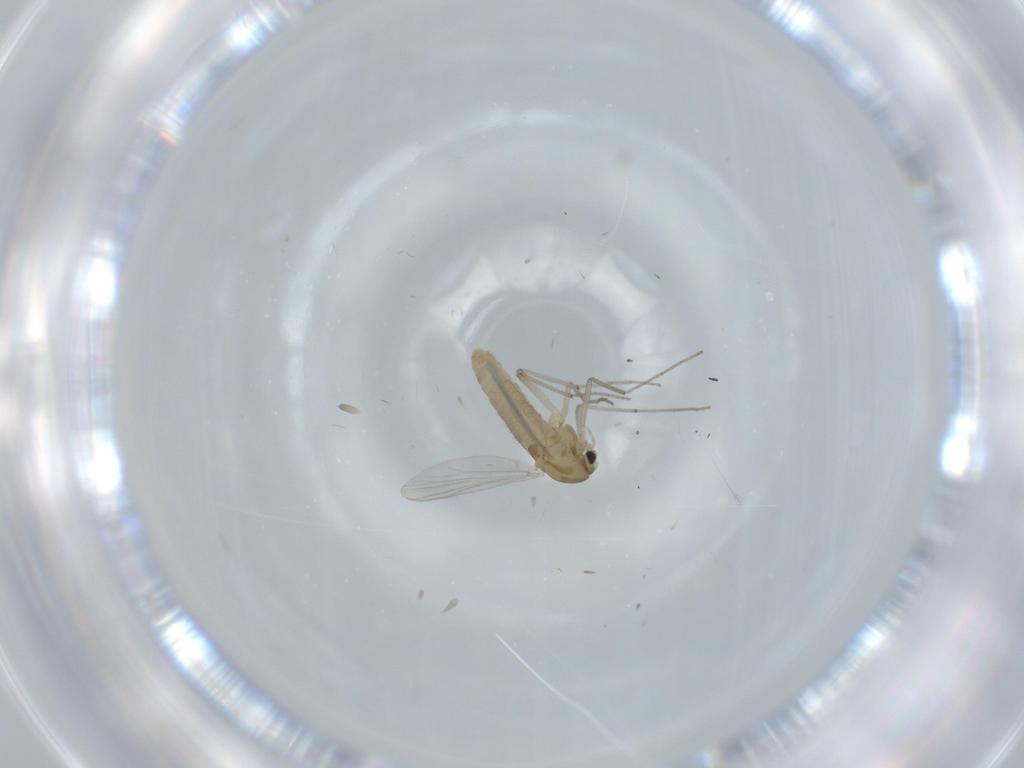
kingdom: Animalia
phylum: Arthropoda
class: Insecta
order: Diptera
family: Chironomidae
